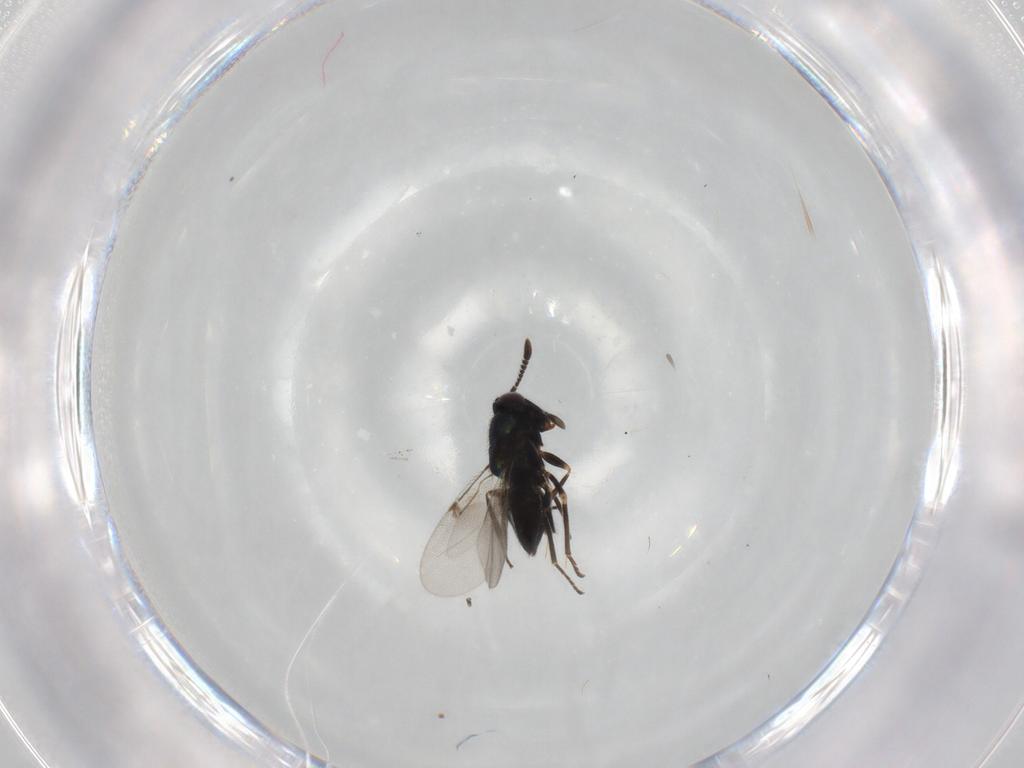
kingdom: Animalia
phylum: Arthropoda
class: Insecta
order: Hymenoptera
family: Encyrtidae
